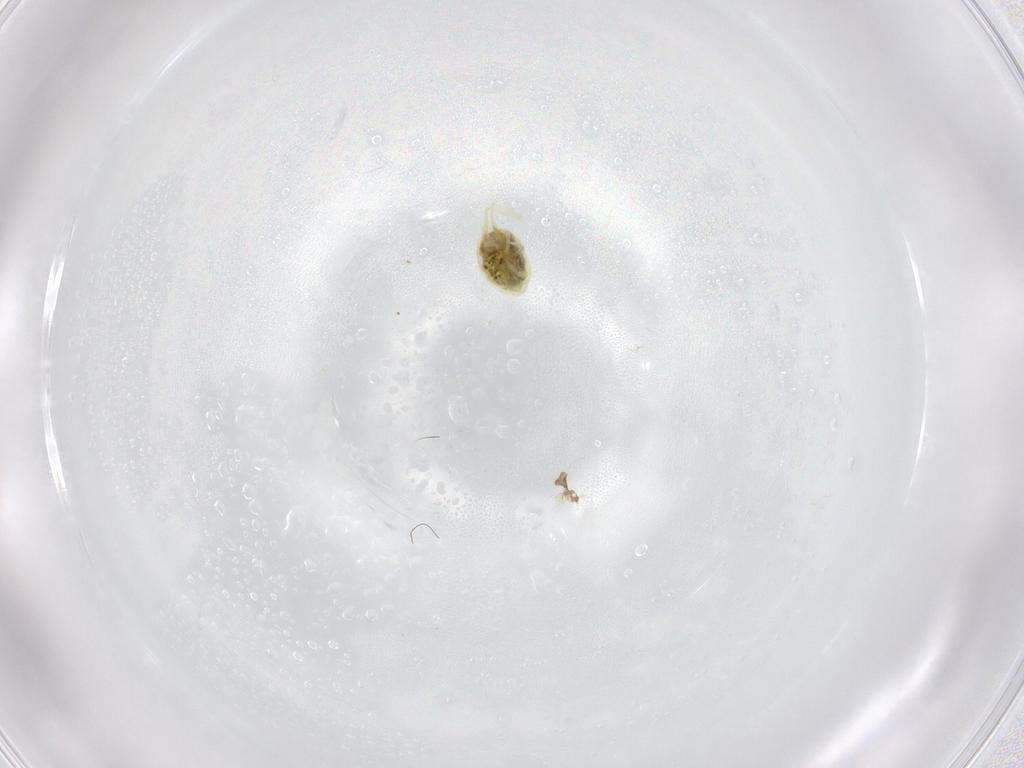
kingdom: Animalia
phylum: Arthropoda
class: Arachnida
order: Trombidiformes
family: Tetranychidae
